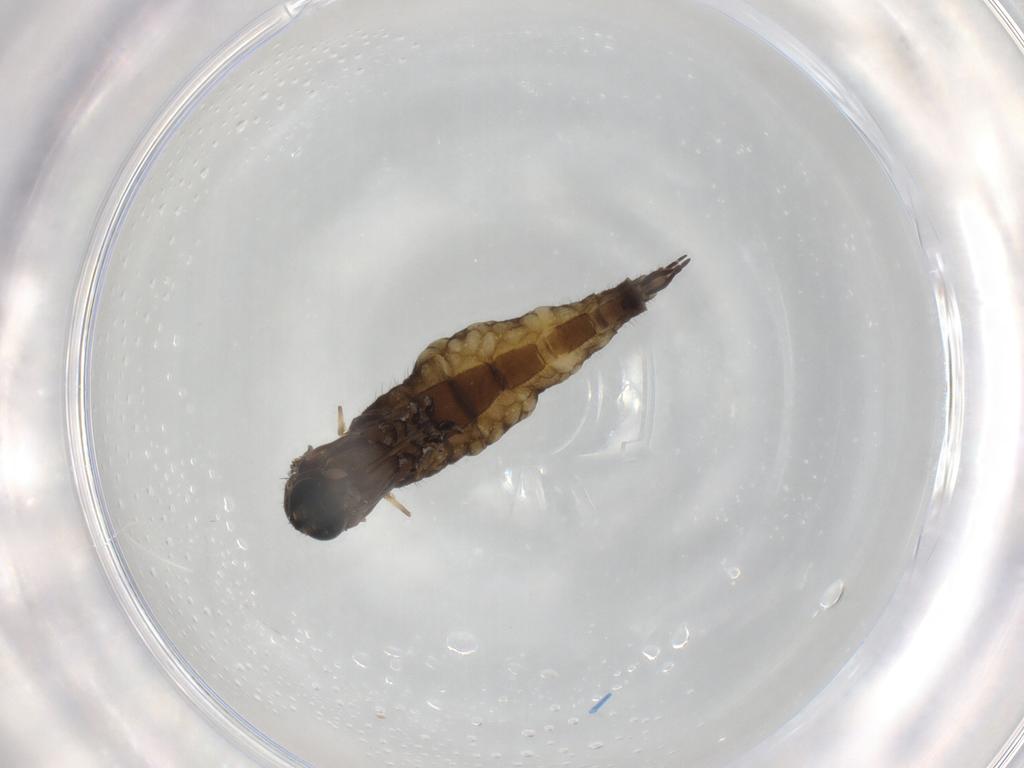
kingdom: Animalia
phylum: Arthropoda
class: Insecta
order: Diptera
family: Sciaridae
